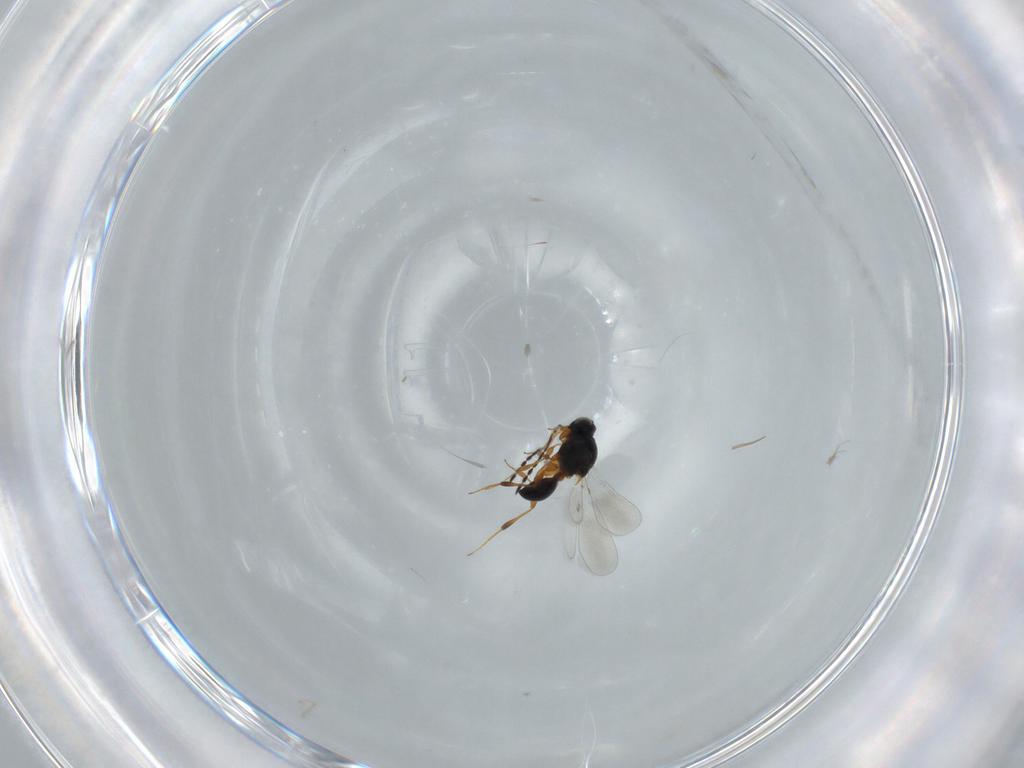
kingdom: Animalia
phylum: Arthropoda
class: Insecta
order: Hymenoptera
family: Platygastridae
